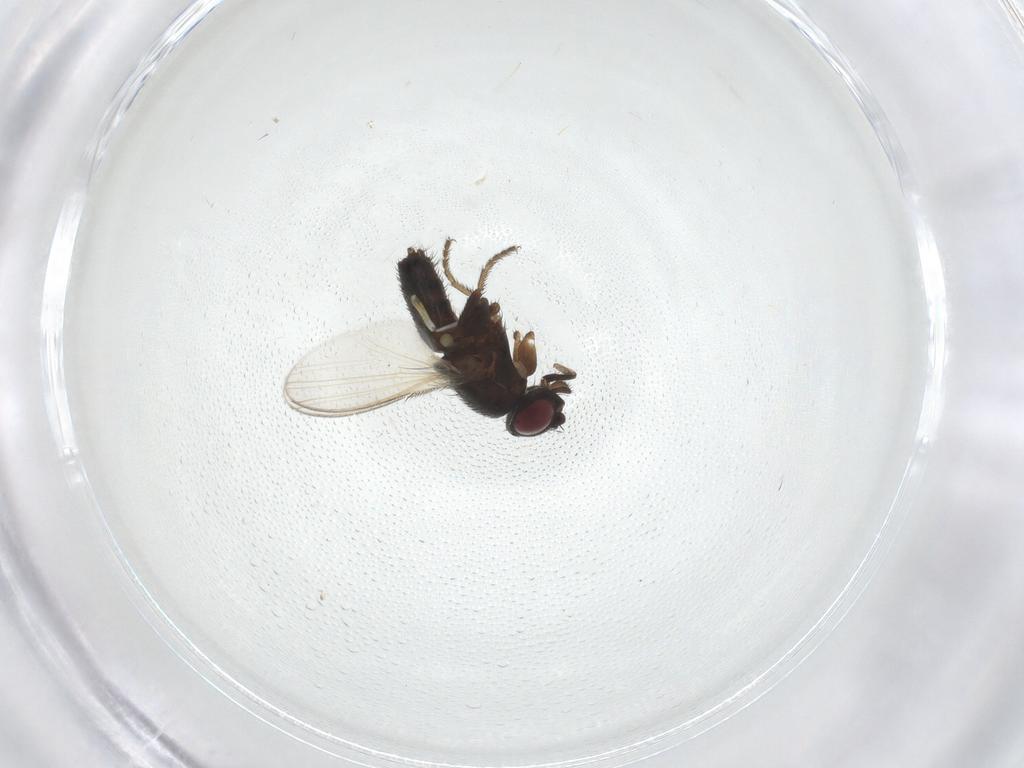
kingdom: Animalia
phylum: Arthropoda
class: Insecta
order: Diptera
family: Milichiidae
